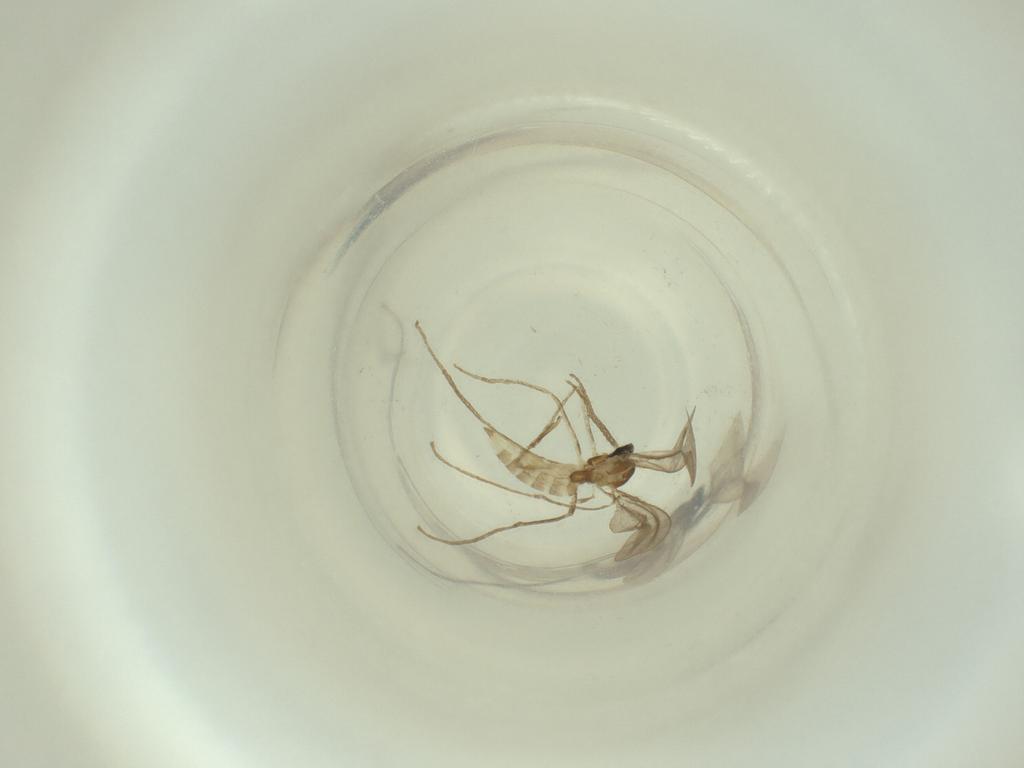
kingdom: Animalia
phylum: Arthropoda
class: Insecta
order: Diptera
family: Cecidomyiidae
